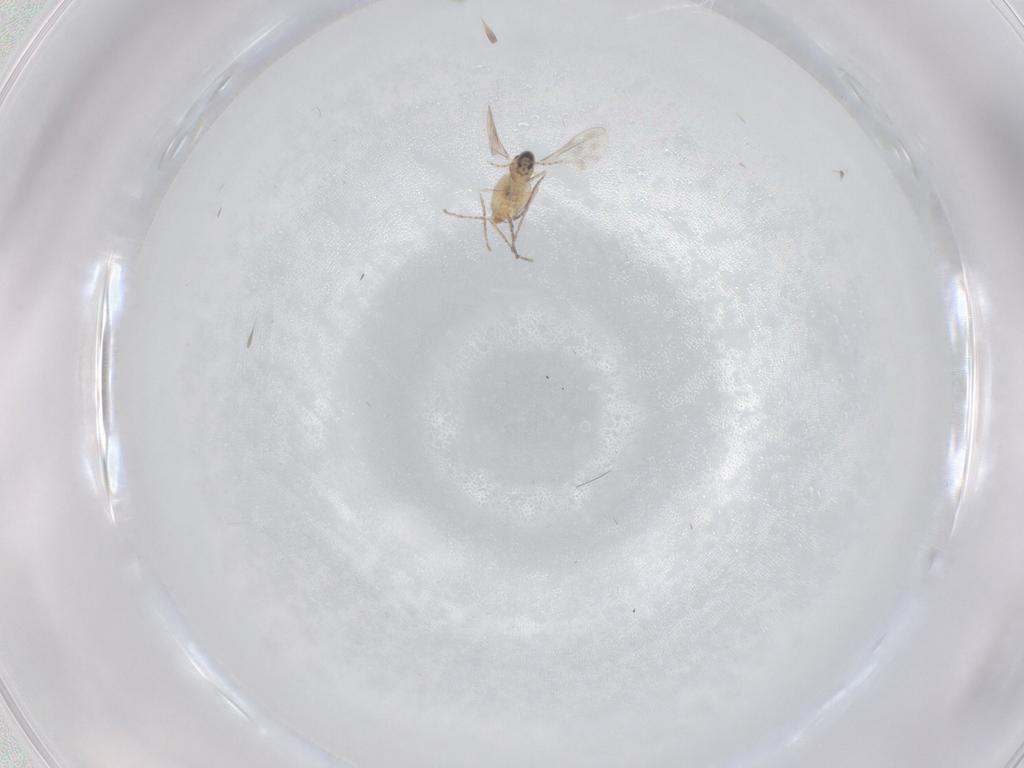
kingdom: Animalia
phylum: Arthropoda
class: Insecta
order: Diptera
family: Cecidomyiidae
